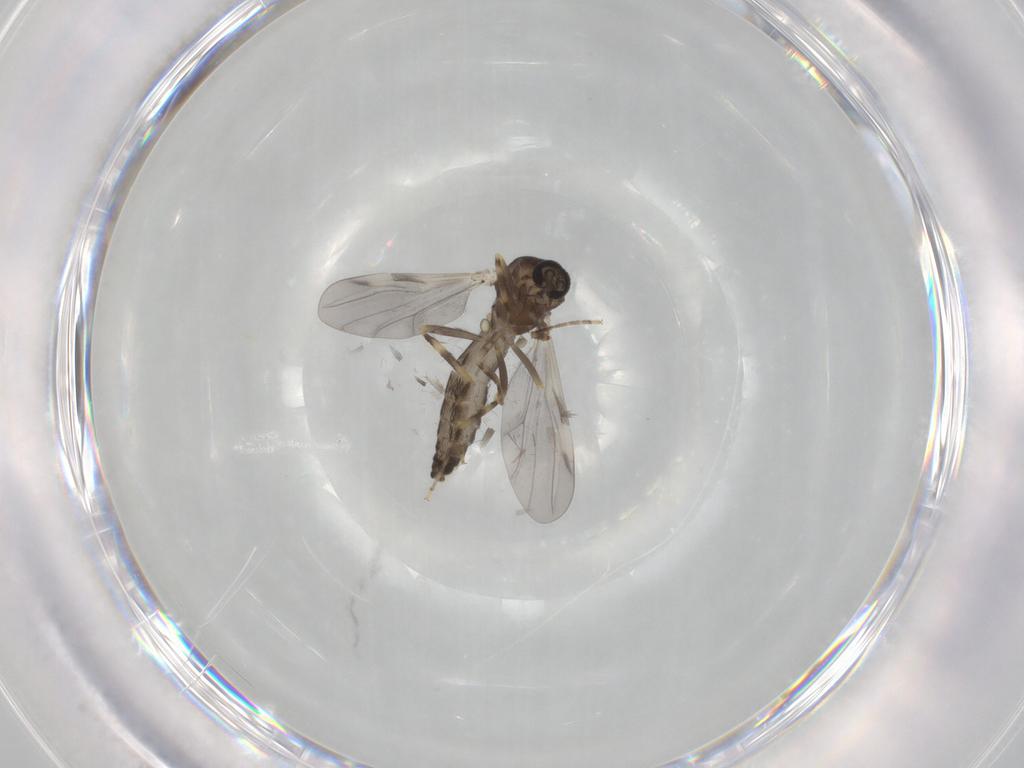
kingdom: Animalia
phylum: Arthropoda
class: Insecta
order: Diptera
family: Ceratopogonidae
